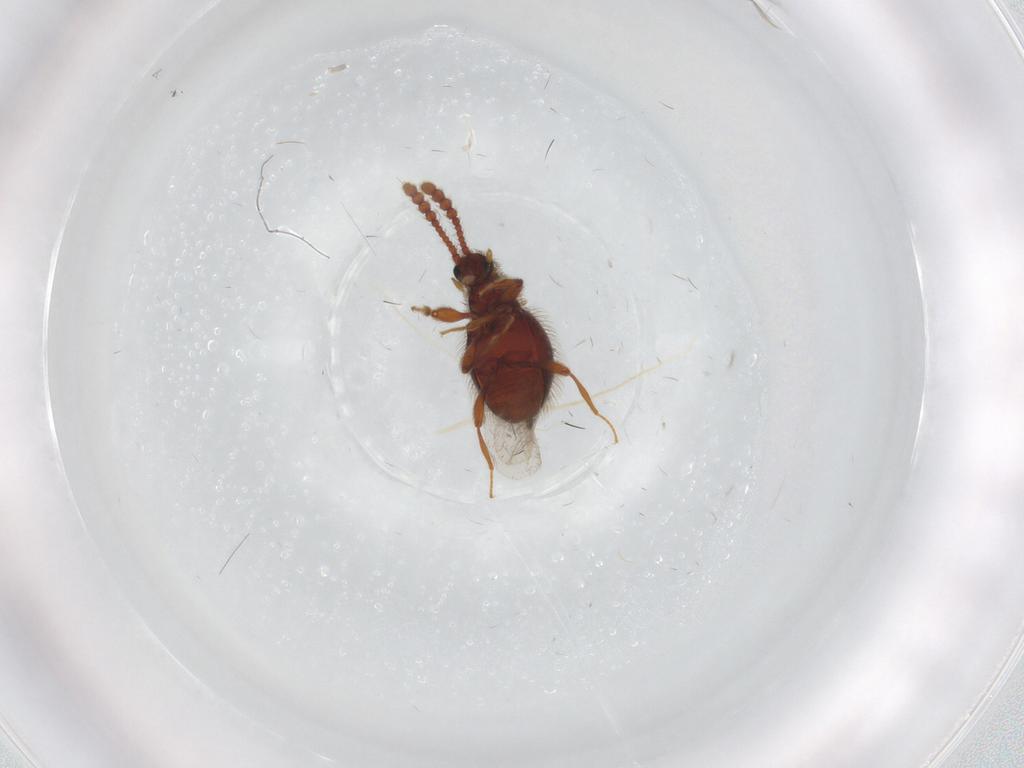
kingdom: Animalia
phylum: Arthropoda
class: Insecta
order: Coleoptera
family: Staphylinidae
